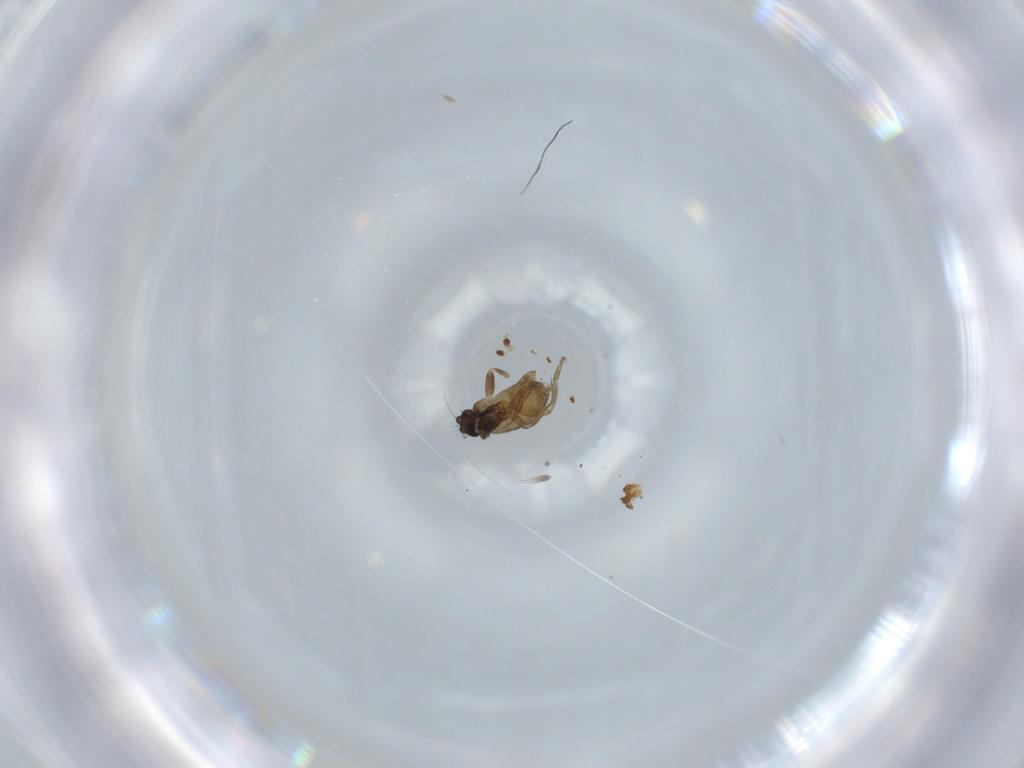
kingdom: Animalia
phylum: Arthropoda
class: Insecta
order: Diptera
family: Phoridae
